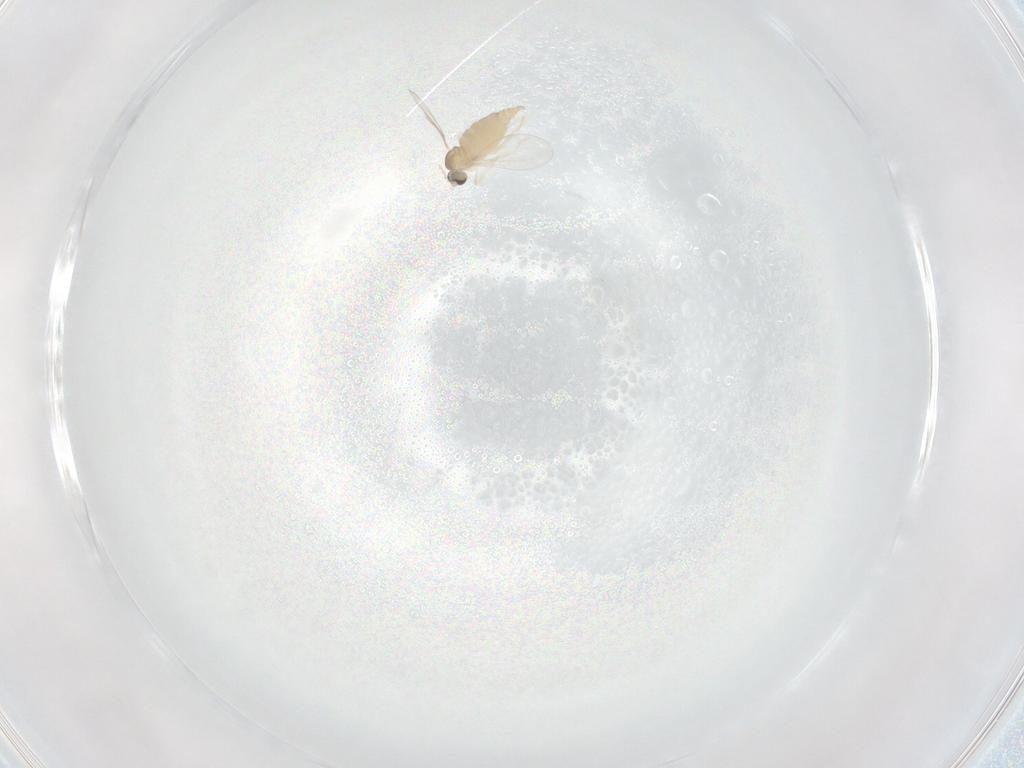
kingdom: Animalia
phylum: Arthropoda
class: Insecta
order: Diptera
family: Cecidomyiidae
